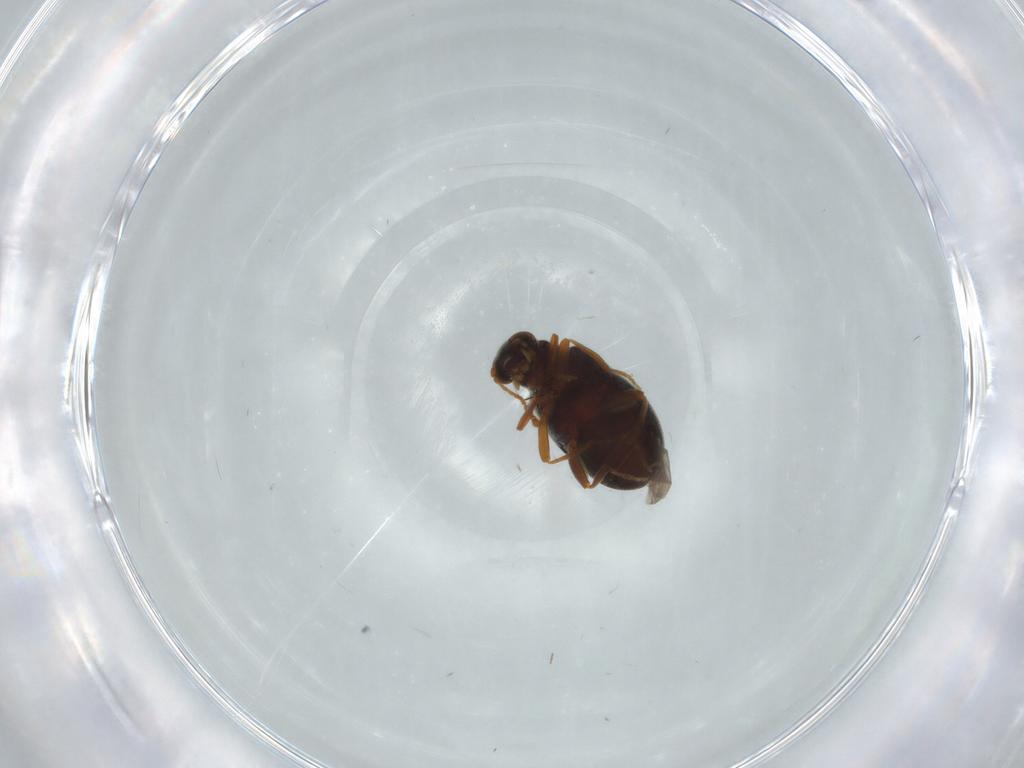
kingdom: Animalia
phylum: Arthropoda
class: Insecta
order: Coleoptera
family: Aderidae
